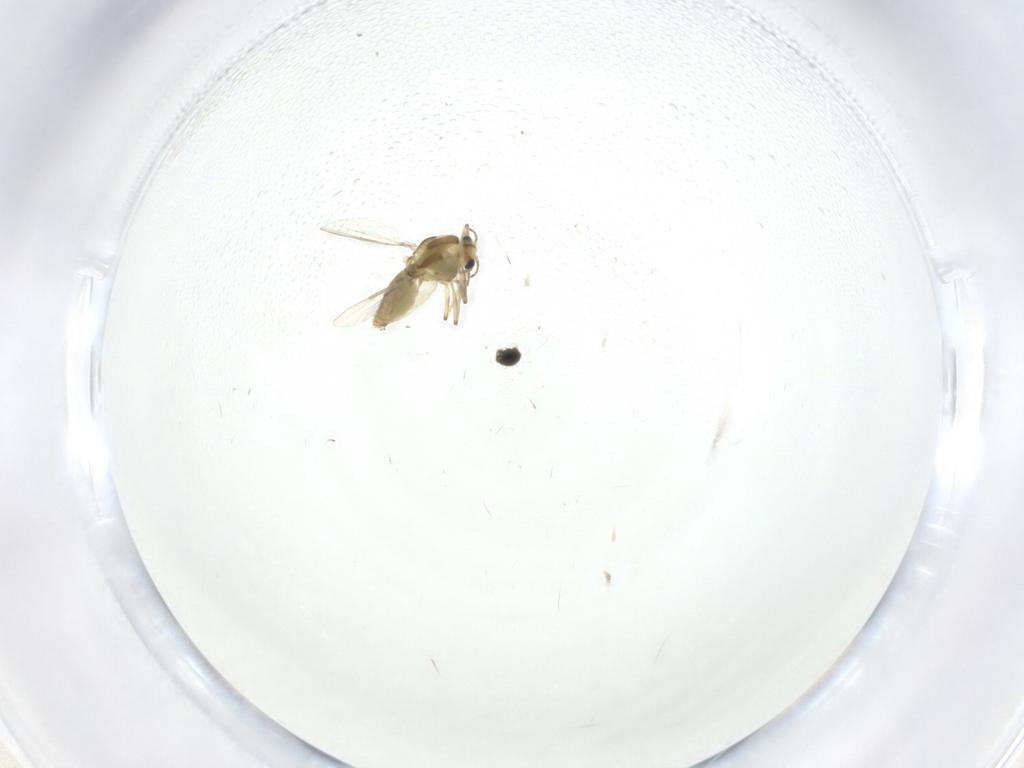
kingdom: Animalia
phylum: Arthropoda
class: Insecta
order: Diptera
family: Chironomidae
